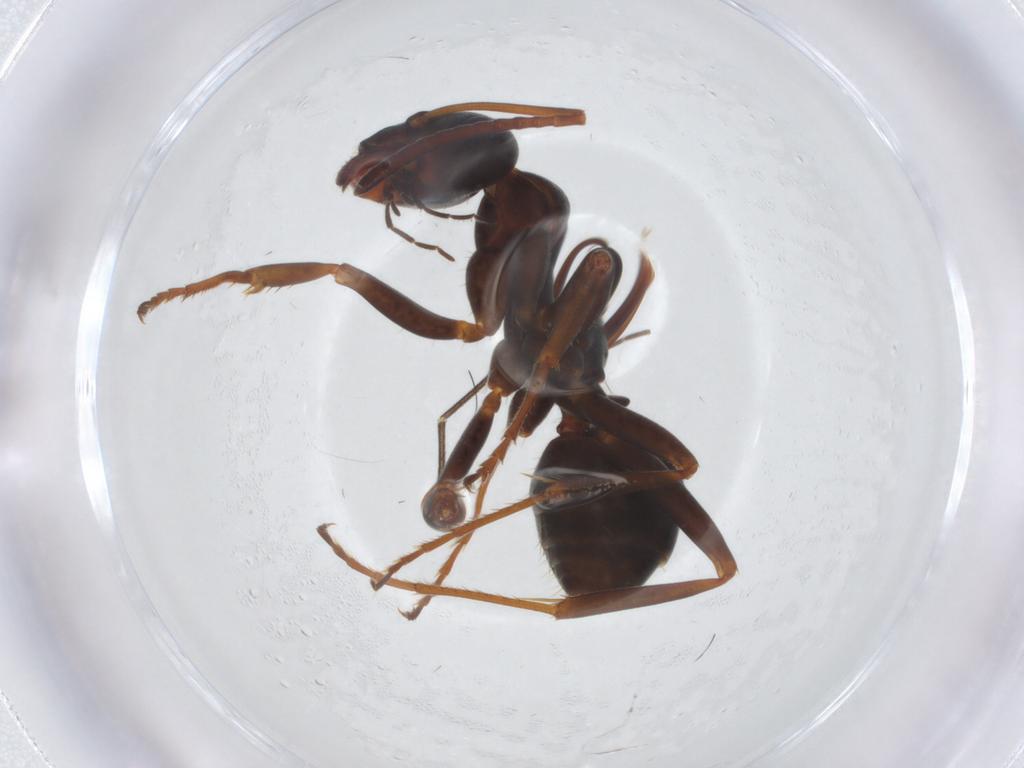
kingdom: Animalia
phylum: Arthropoda
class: Insecta
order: Hymenoptera
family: Formicidae
